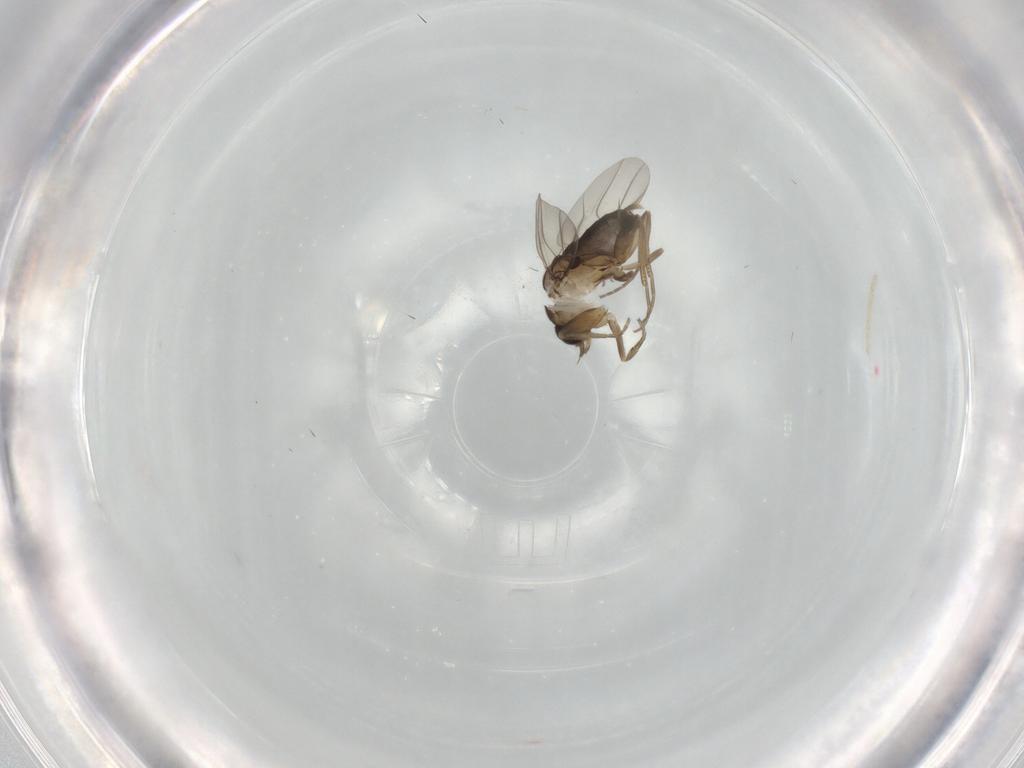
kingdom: Animalia
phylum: Arthropoda
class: Insecta
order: Diptera
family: Phoridae
